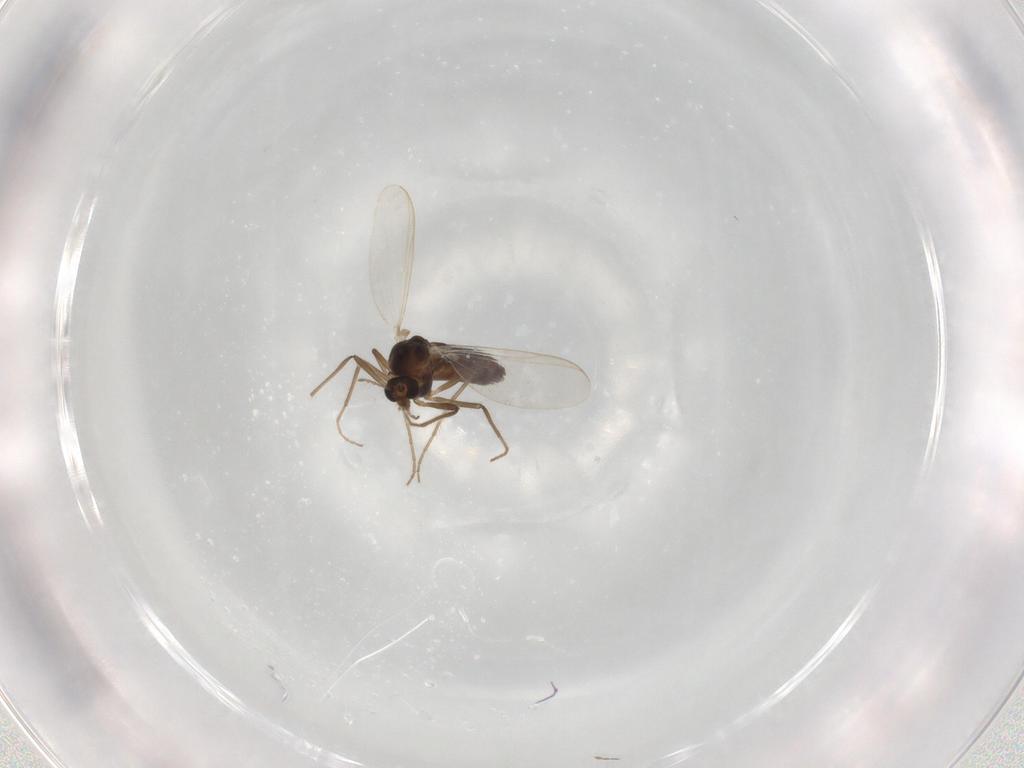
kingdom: Animalia
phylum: Arthropoda
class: Insecta
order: Diptera
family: Chironomidae
